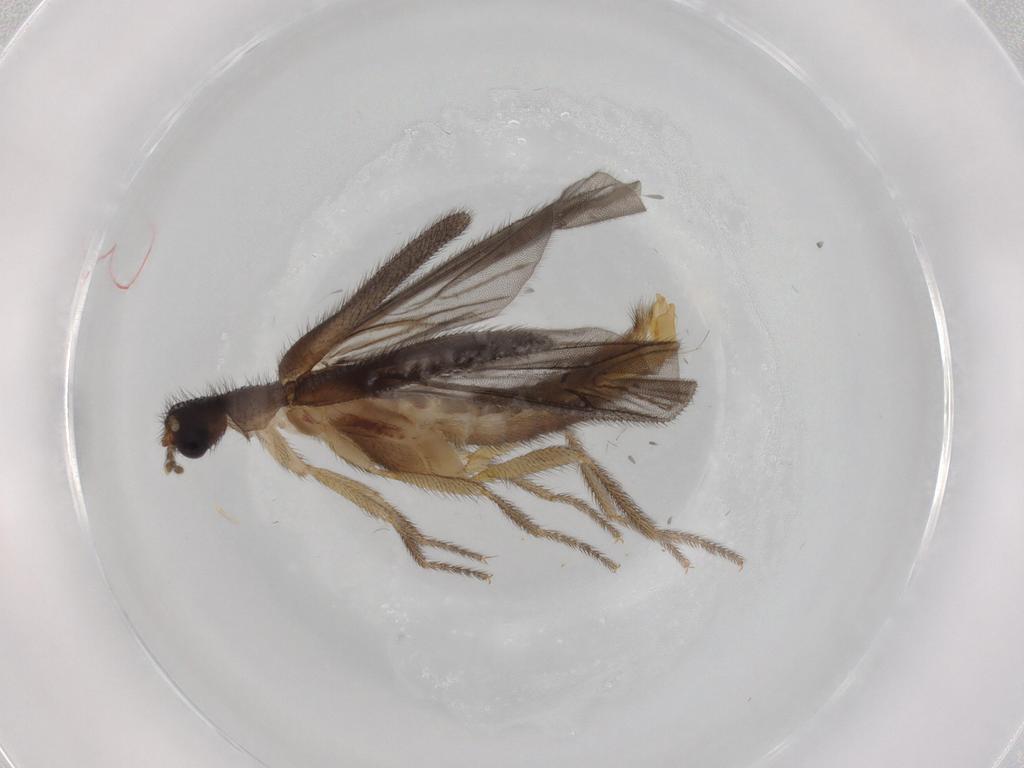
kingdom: Animalia
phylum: Arthropoda
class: Insecta
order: Coleoptera
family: Phengodidae
